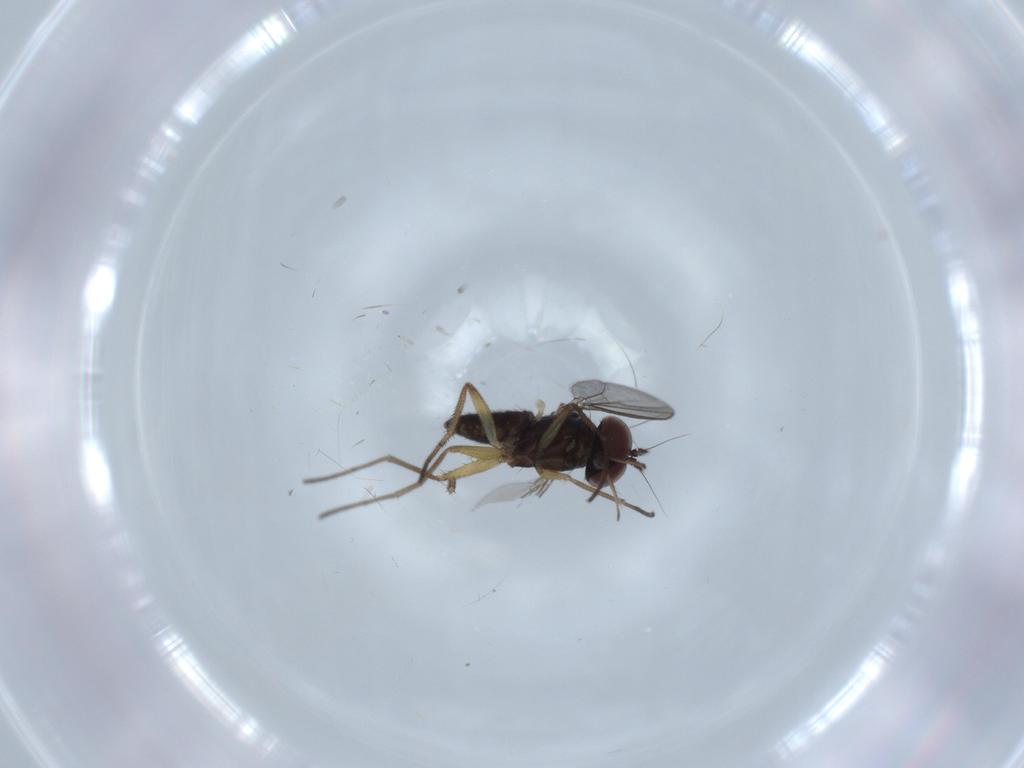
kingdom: Animalia
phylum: Arthropoda
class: Insecta
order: Diptera
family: Dolichopodidae
